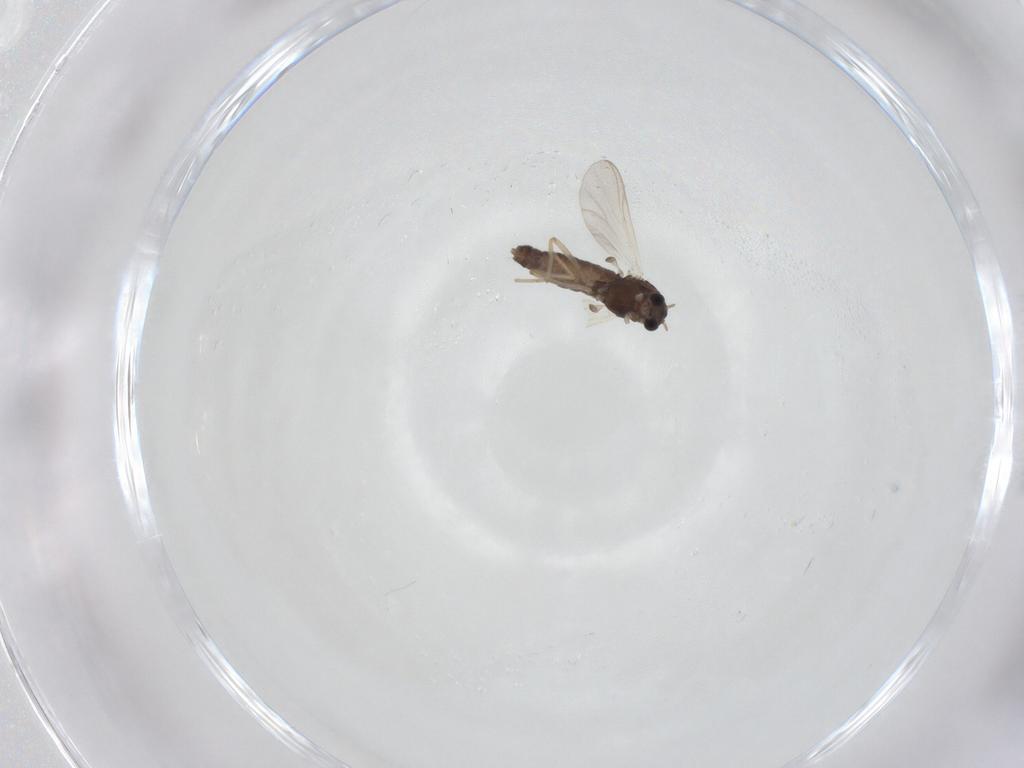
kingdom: Animalia
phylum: Arthropoda
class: Insecta
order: Diptera
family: Chironomidae
